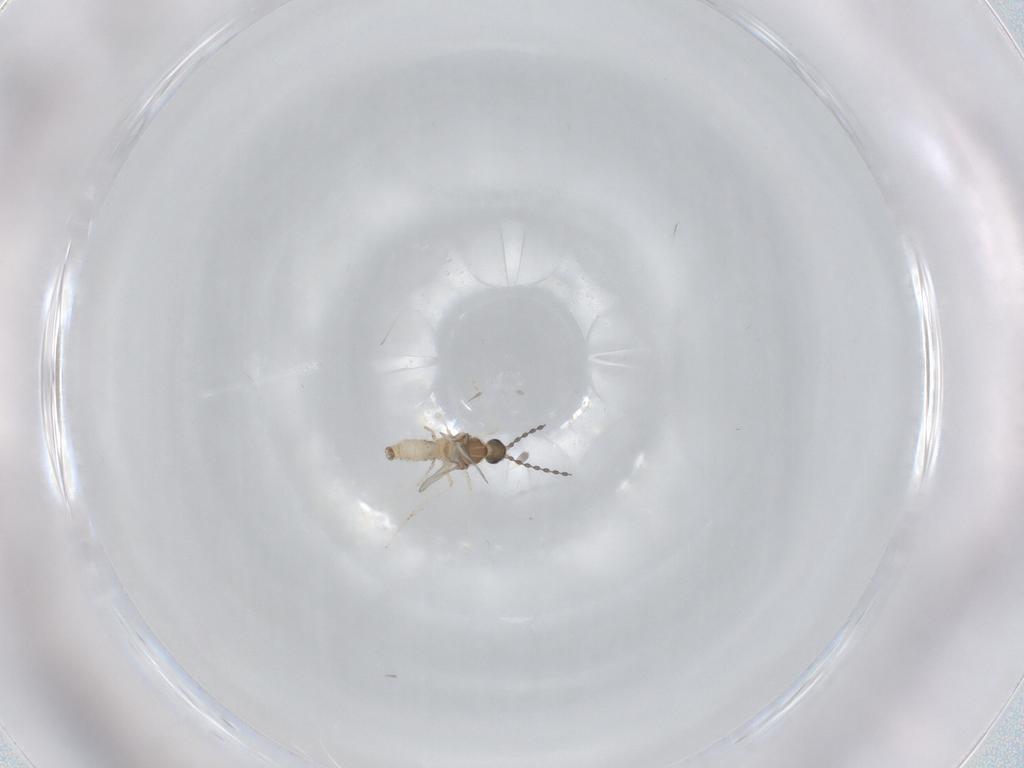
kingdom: Animalia
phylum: Arthropoda
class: Insecta
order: Diptera
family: Cecidomyiidae
